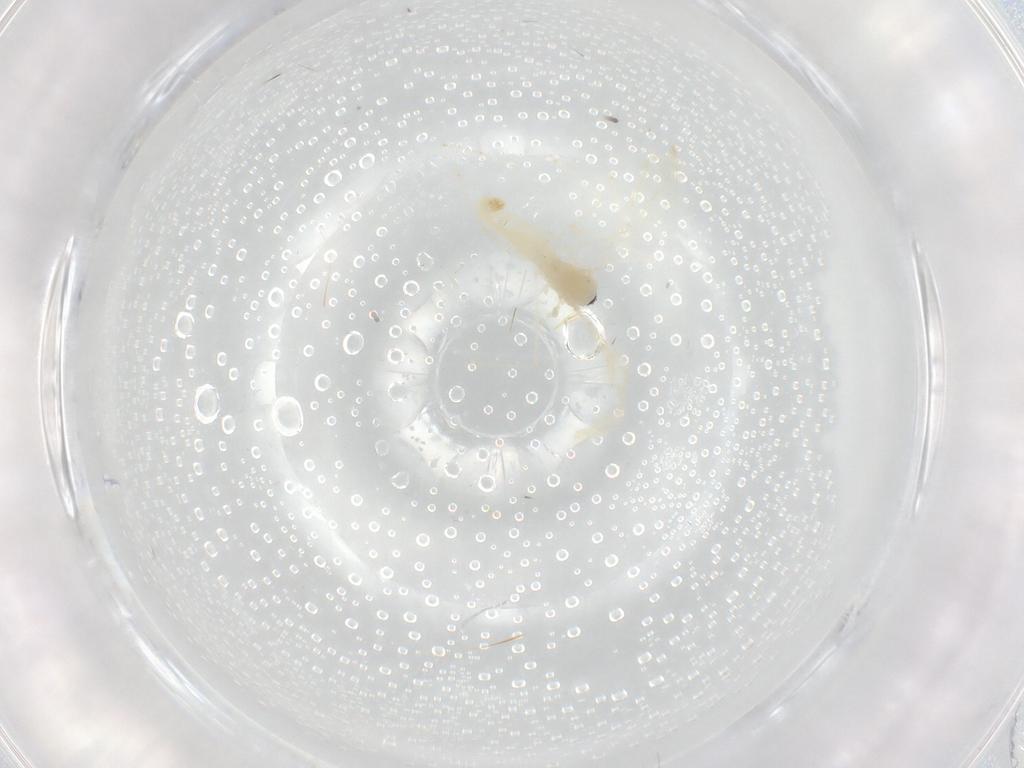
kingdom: Animalia
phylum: Arthropoda
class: Insecta
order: Diptera
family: Cecidomyiidae
